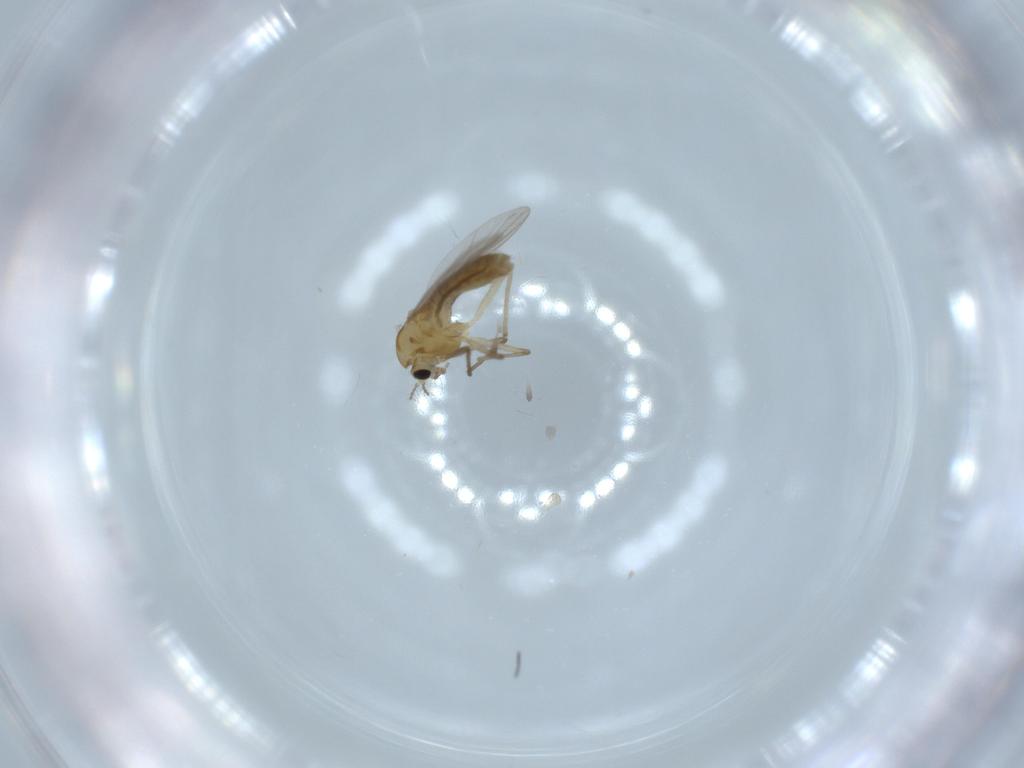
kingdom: Animalia
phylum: Arthropoda
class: Insecta
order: Diptera
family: Chironomidae
